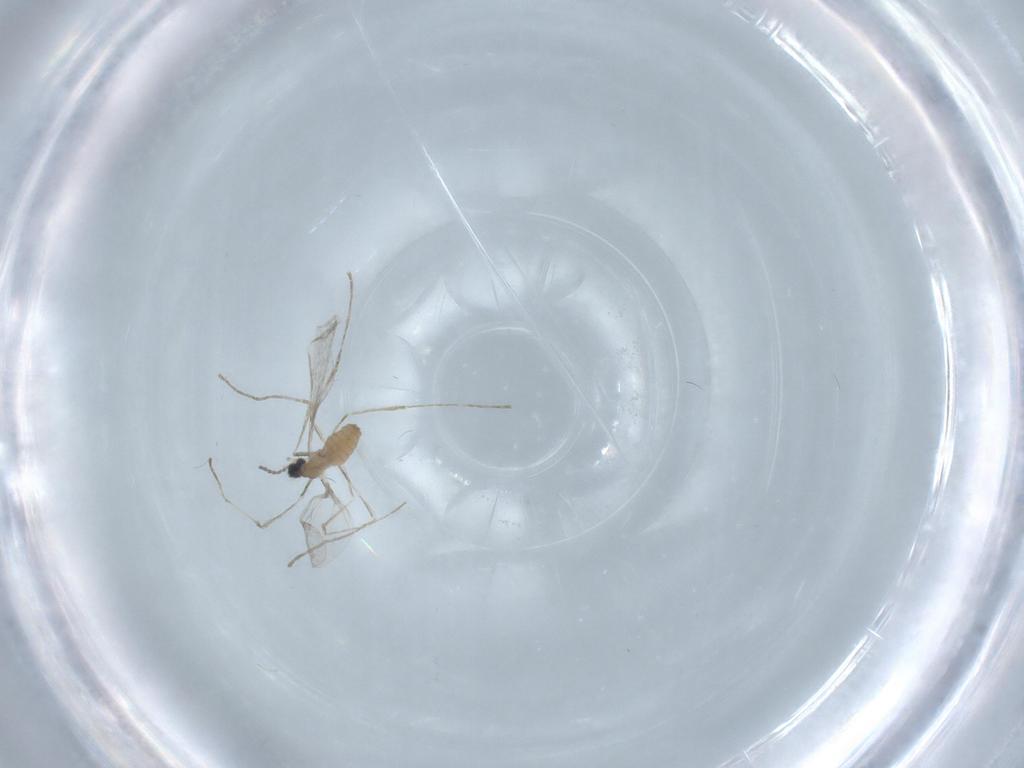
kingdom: Animalia
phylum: Arthropoda
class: Insecta
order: Diptera
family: Cecidomyiidae
